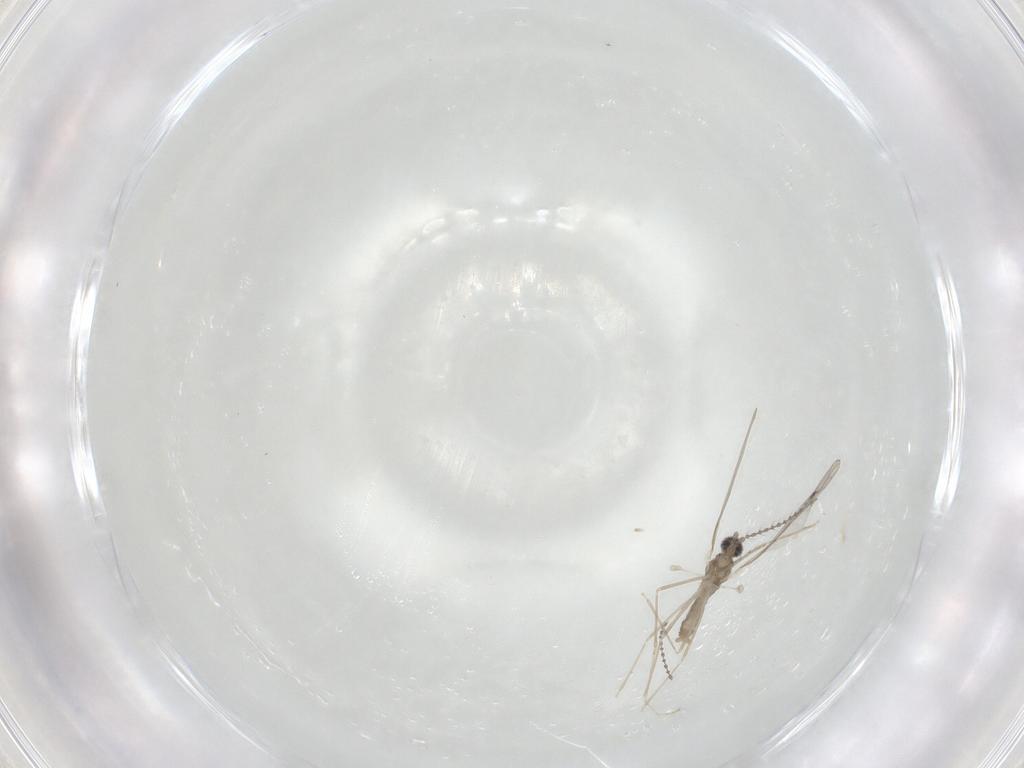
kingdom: Animalia
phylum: Arthropoda
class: Insecta
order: Diptera
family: Cecidomyiidae
